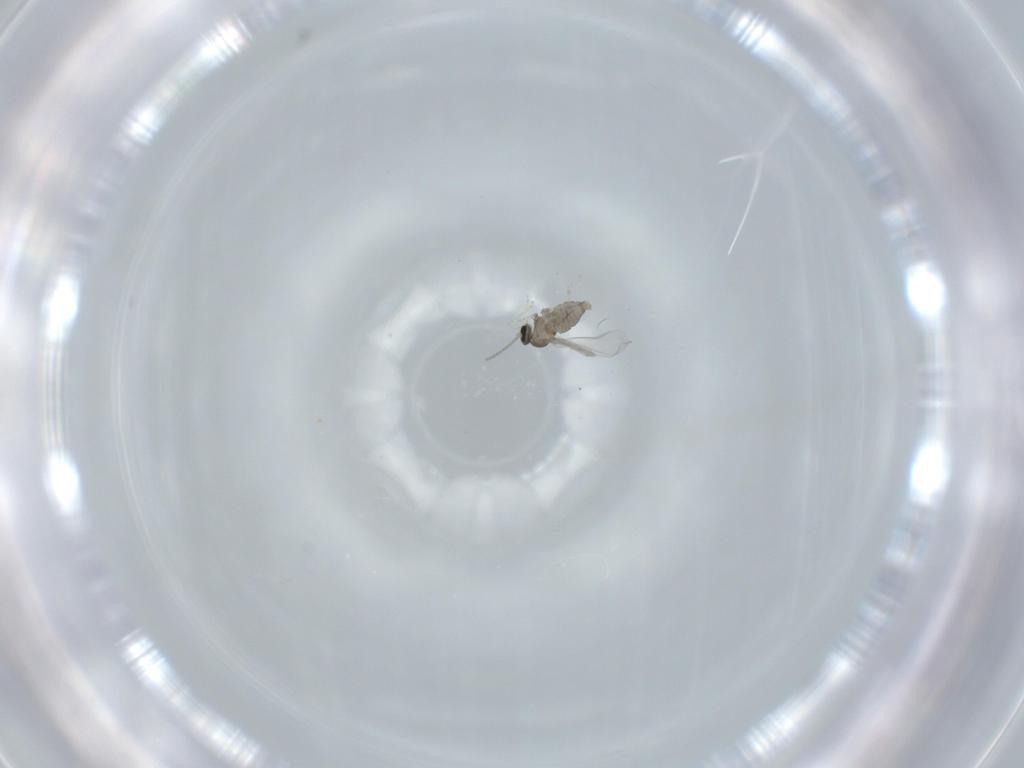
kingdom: Animalia
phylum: Arthropoda
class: Insecta
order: Diptera
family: Cecidomyiidae
